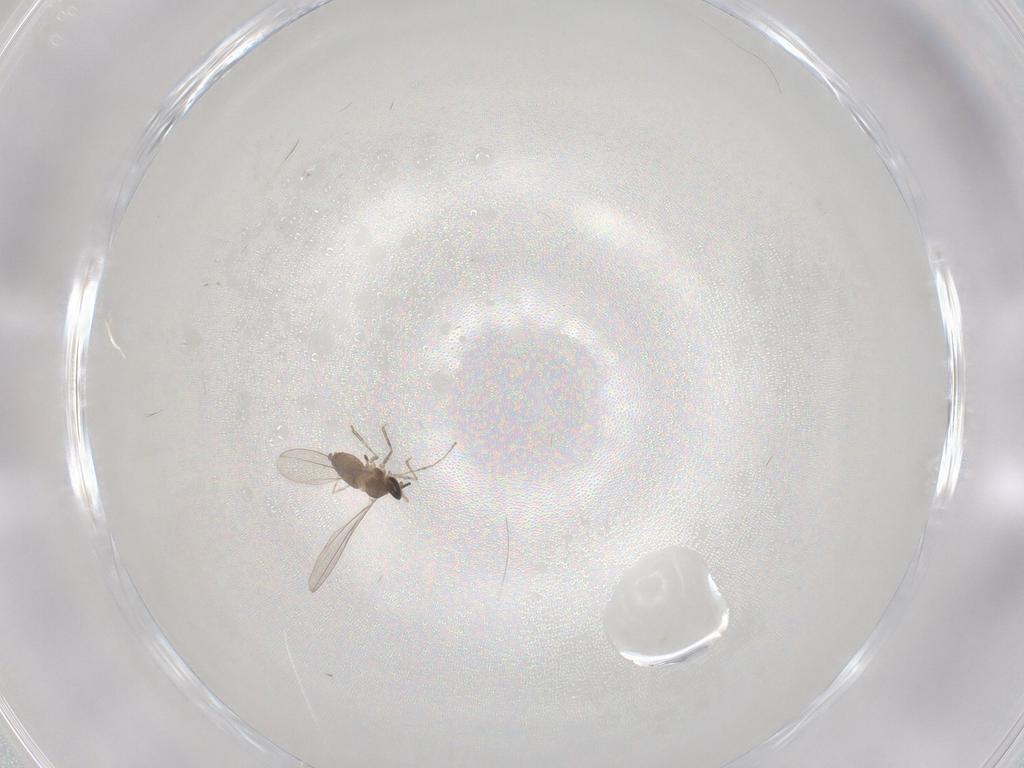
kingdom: Animalia
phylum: Arthropoda
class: Insecta
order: Diptera
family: Cecidomyiidae
